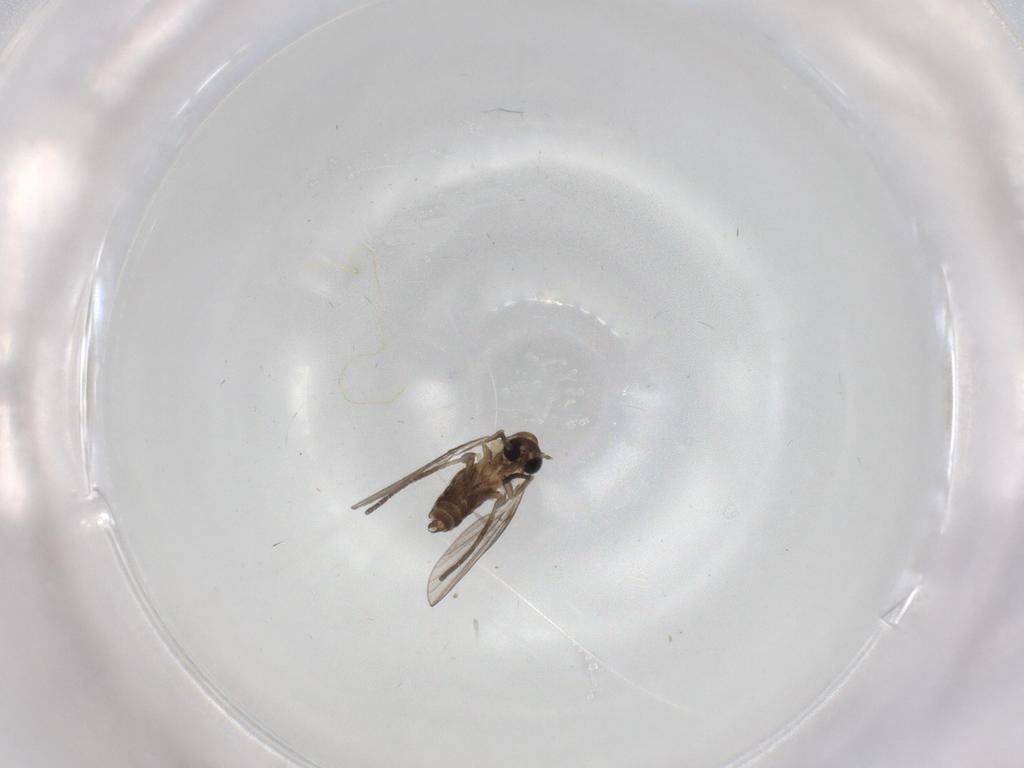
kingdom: Animalia
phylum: Arthropoda
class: Insecta
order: Diptera
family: Psychodidae
